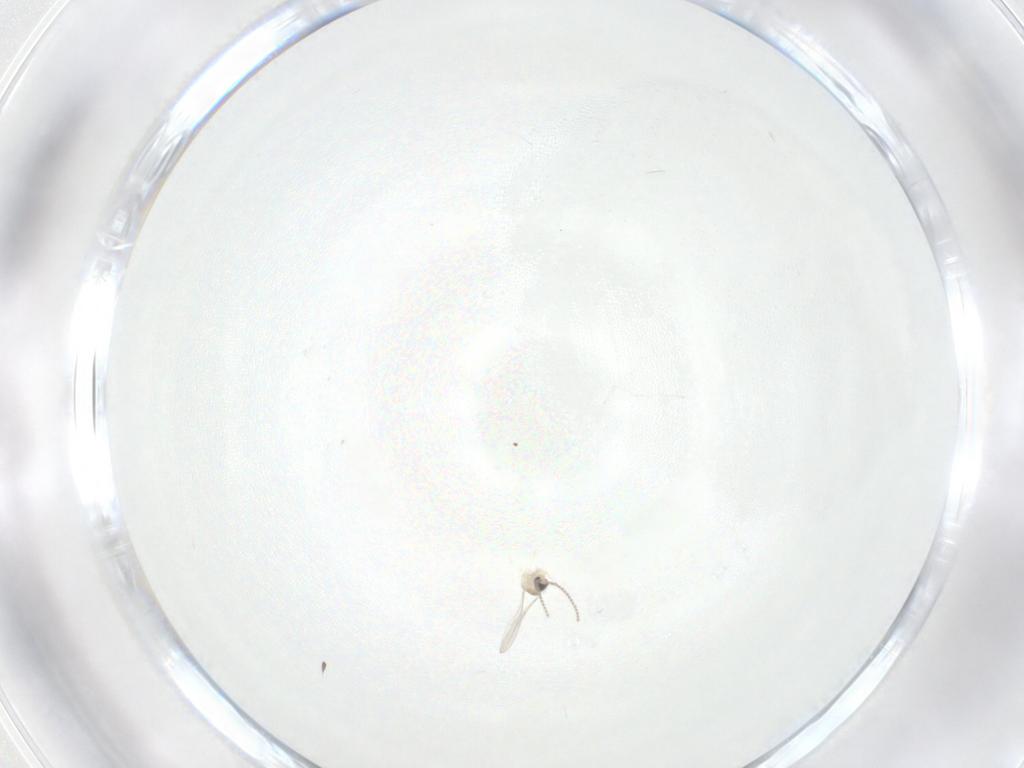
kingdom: Animalia
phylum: Arthropoda
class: Insecta
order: Diptera
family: Cecidomyiidae
